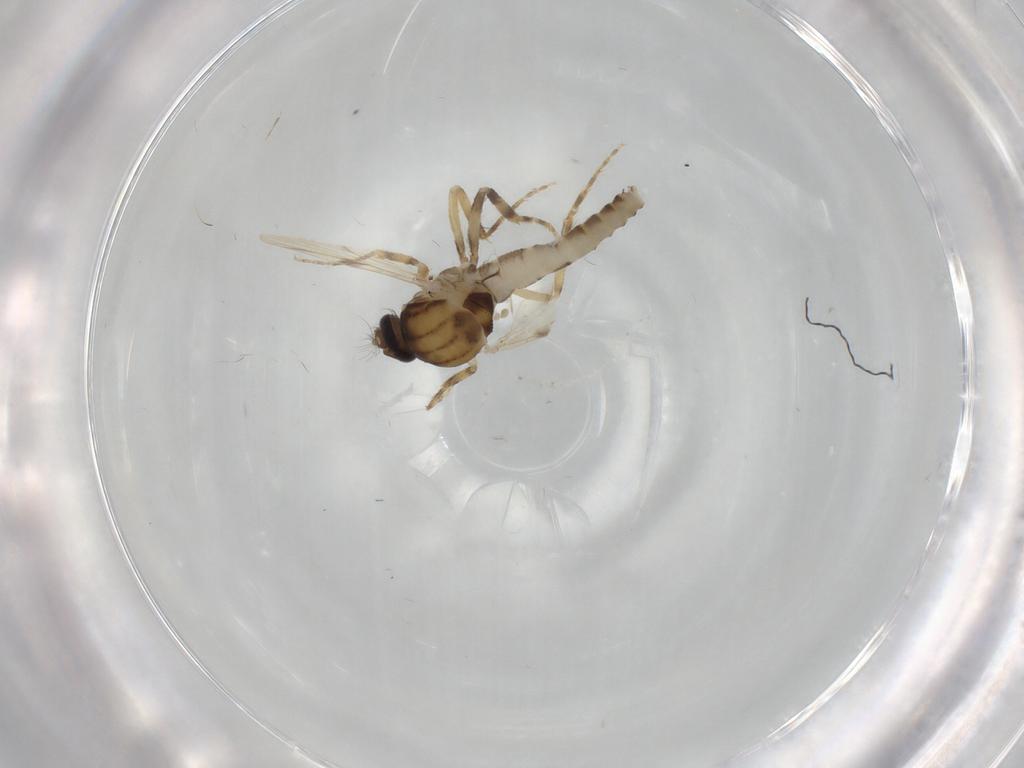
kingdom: Animalia
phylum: Arthropoda
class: Insecta
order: Diptera
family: Ceratopogonidae
